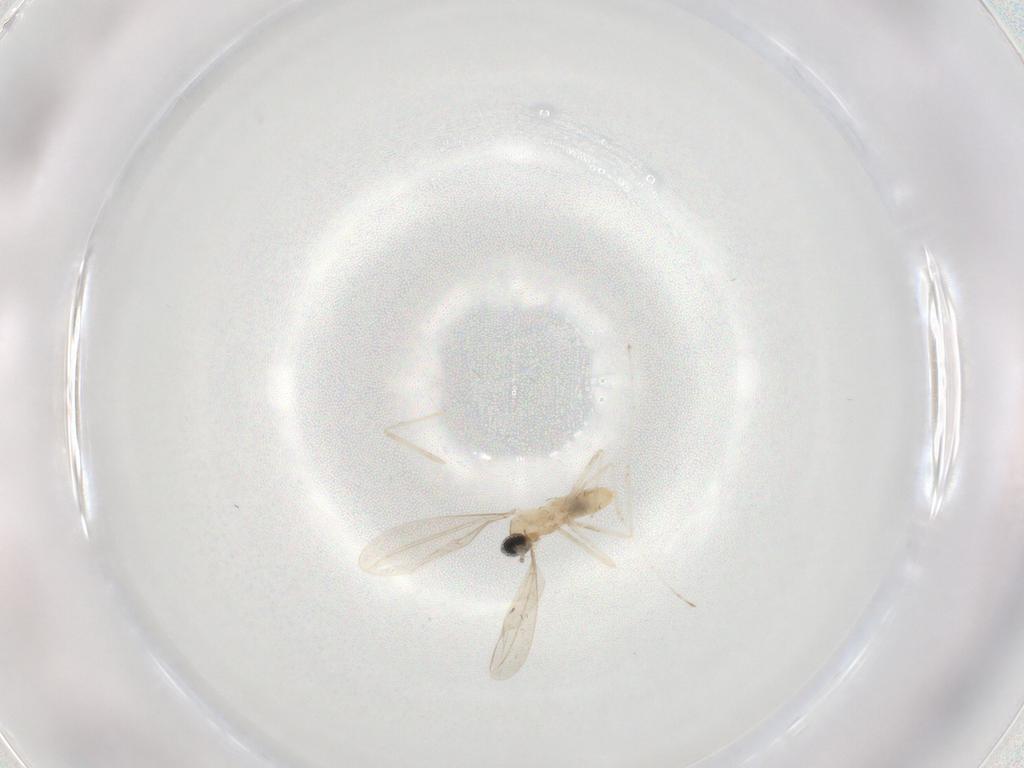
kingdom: Animalia
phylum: Arthropoda
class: Insecta
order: Diptera
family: Cecidomyiidae
